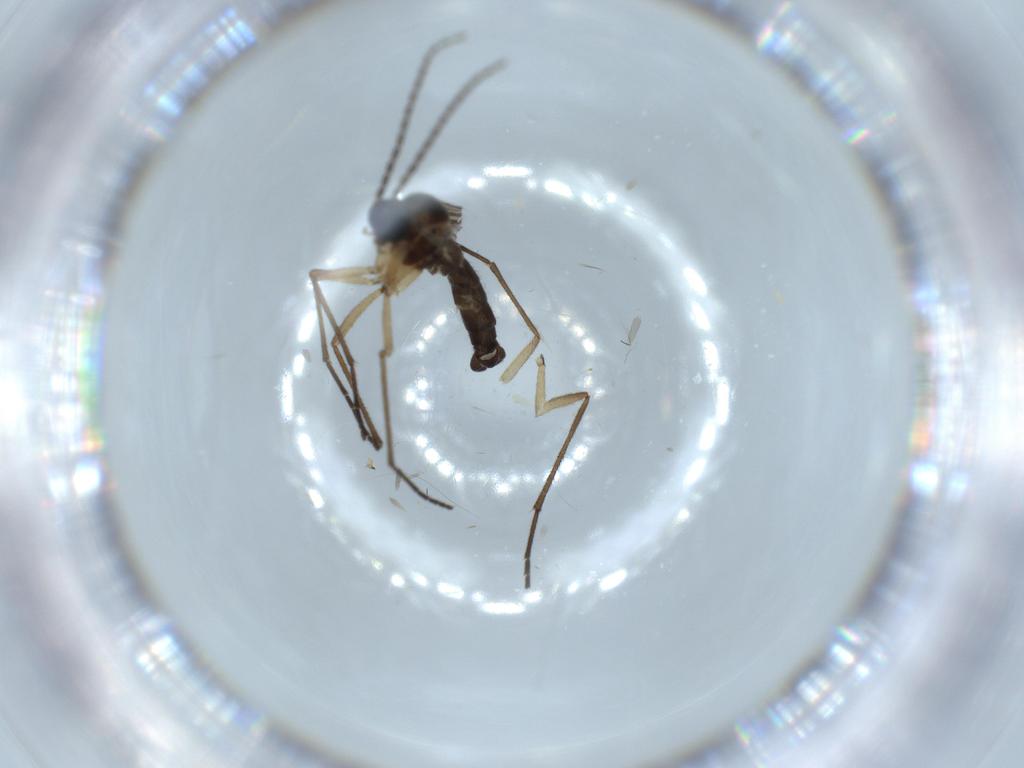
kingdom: Animalia
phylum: Arthropoda
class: Insecta
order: Diptera
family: Sciaridae
